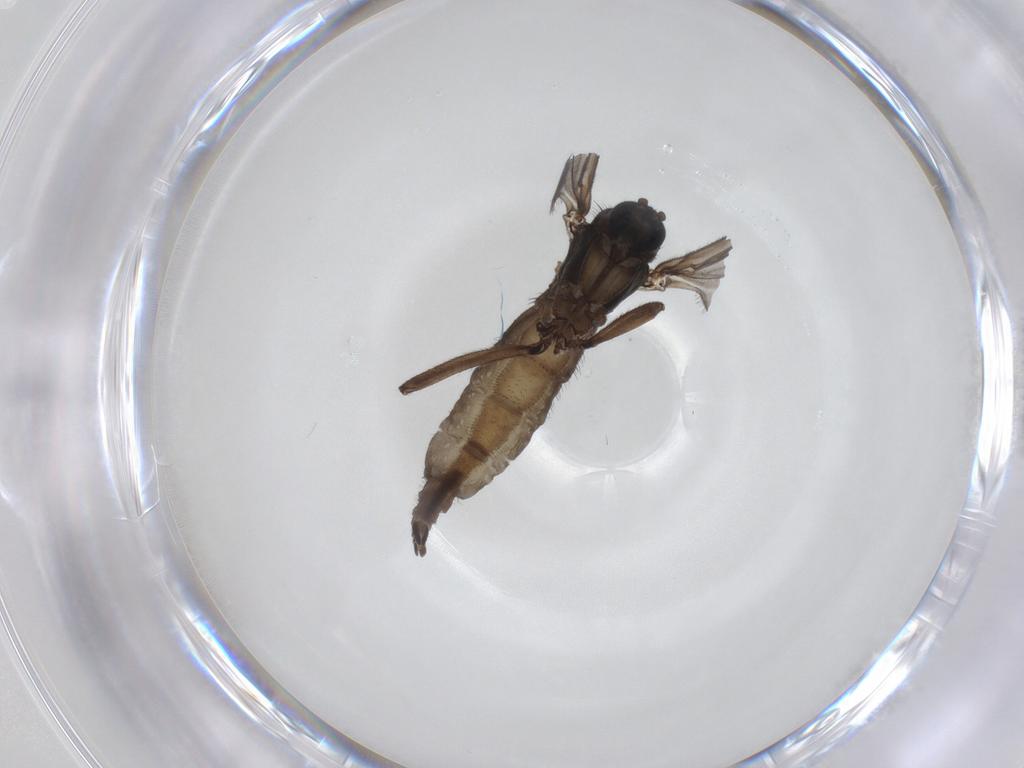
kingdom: Animalia
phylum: Arthropoda
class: Insecta
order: Diptera
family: Sciaridae
